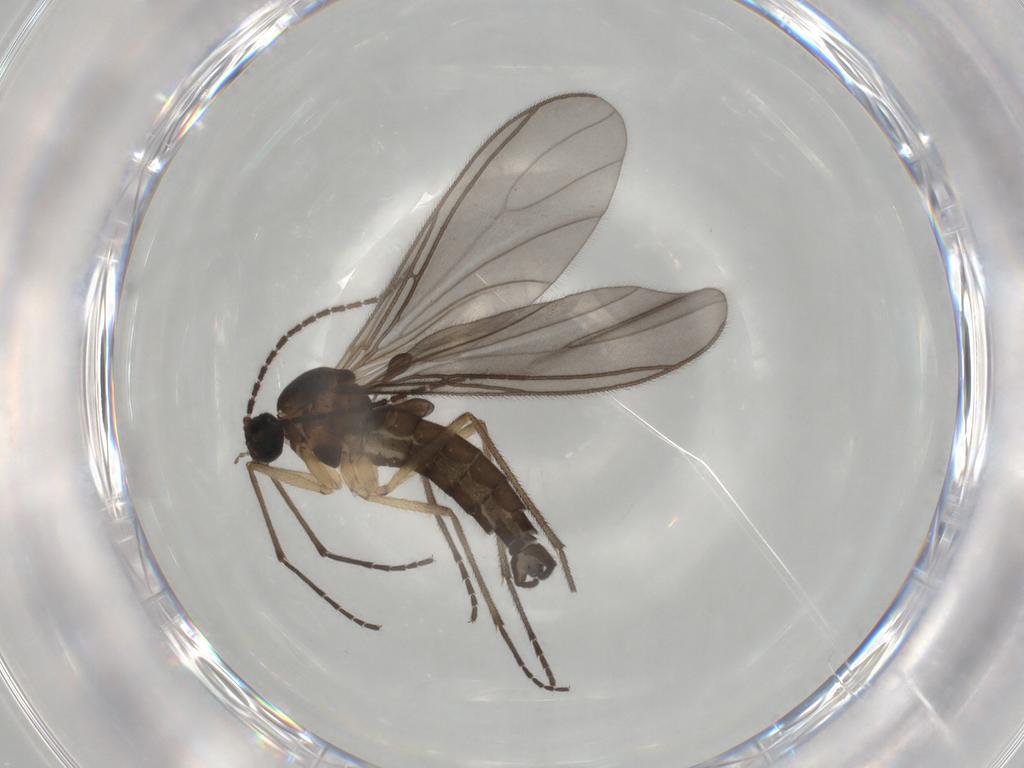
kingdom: Animalia
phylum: Arthropoda
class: Insecta
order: Diptera
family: Sciaridae
